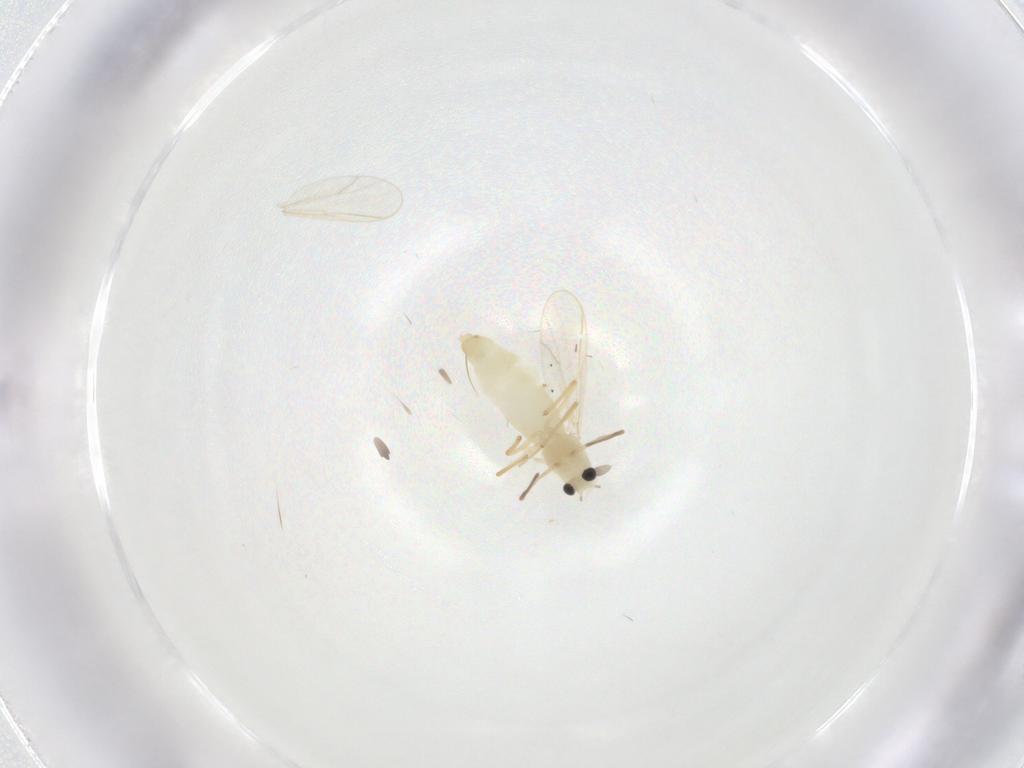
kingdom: Animalia
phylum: Arthropoda
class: Insecta
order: Diptera
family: Chironomidae
